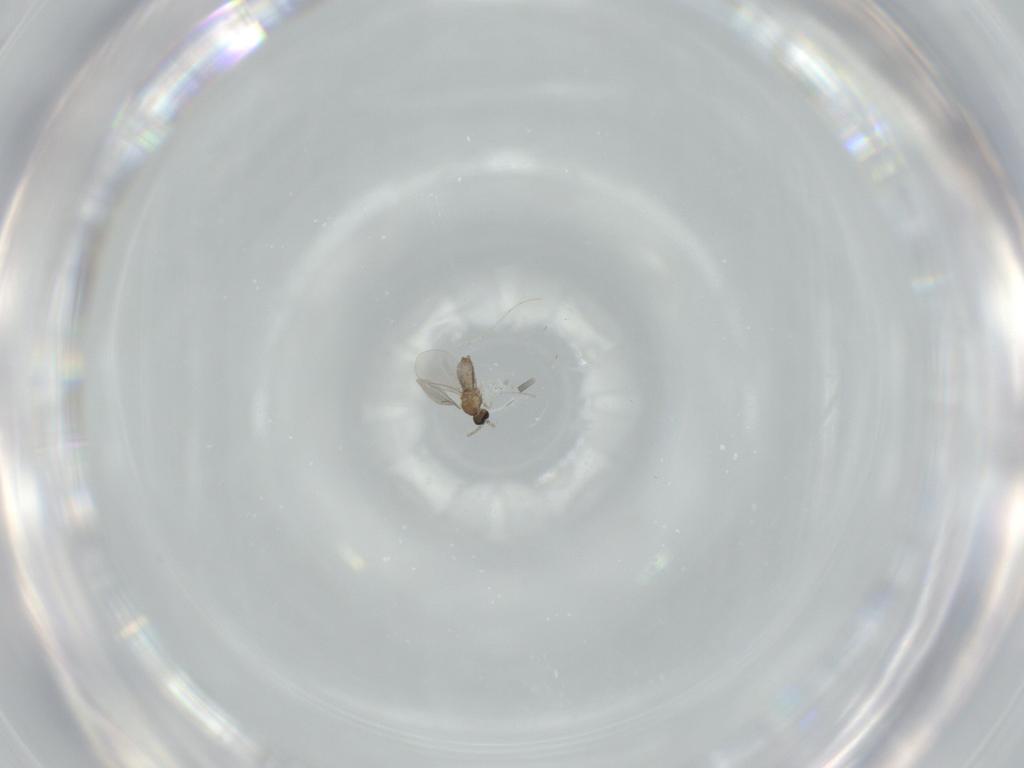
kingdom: Animalia
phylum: Arthropoda
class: Insecta
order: Diptera
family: Cecidomyiidae
